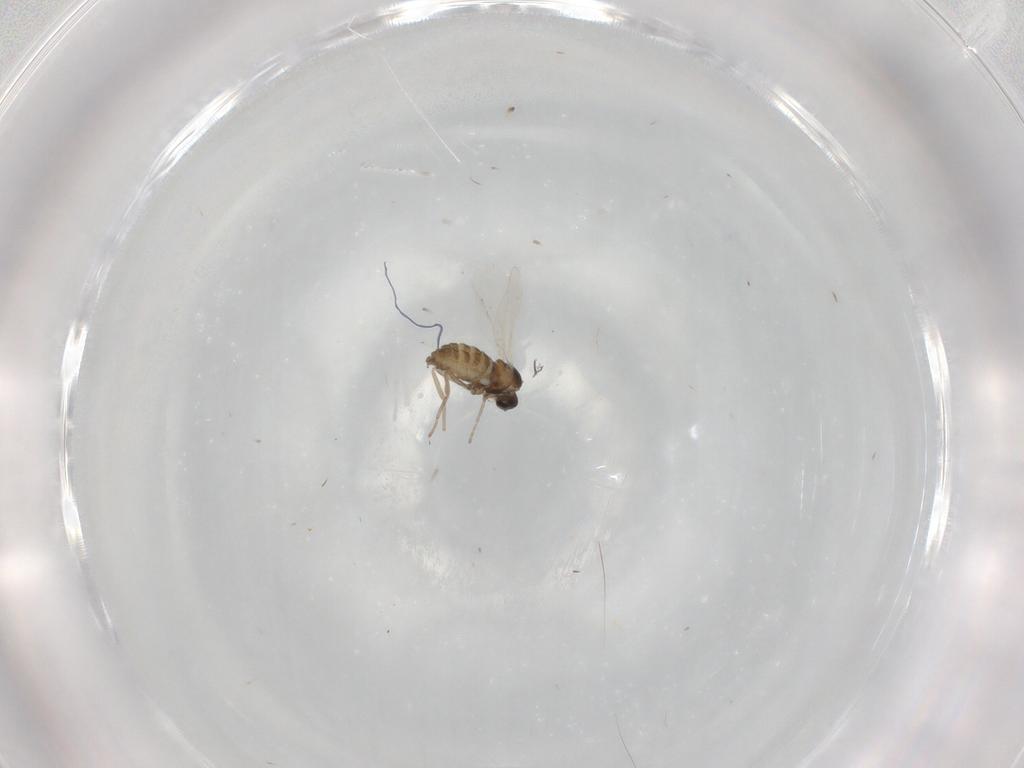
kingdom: Animalia
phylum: Arthropoda
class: Insecta
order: Diptera
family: Cecidomyiidae
